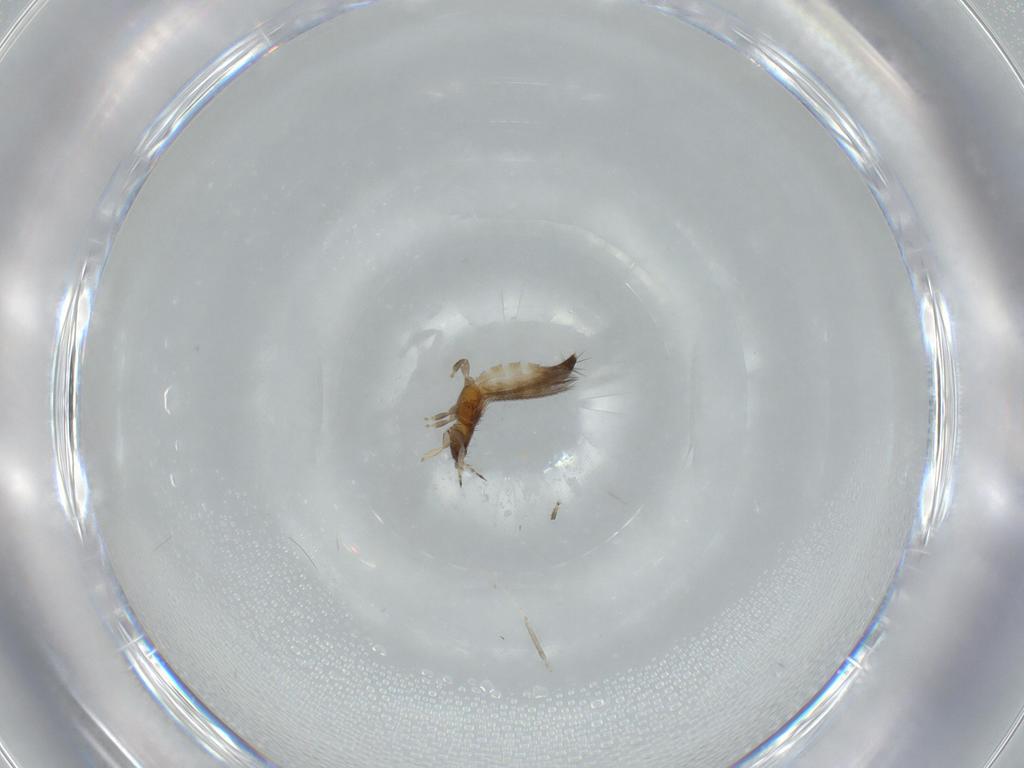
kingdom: Animalia
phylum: Arthropoda
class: Insecta
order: Thysanoptera
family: Thripidae
